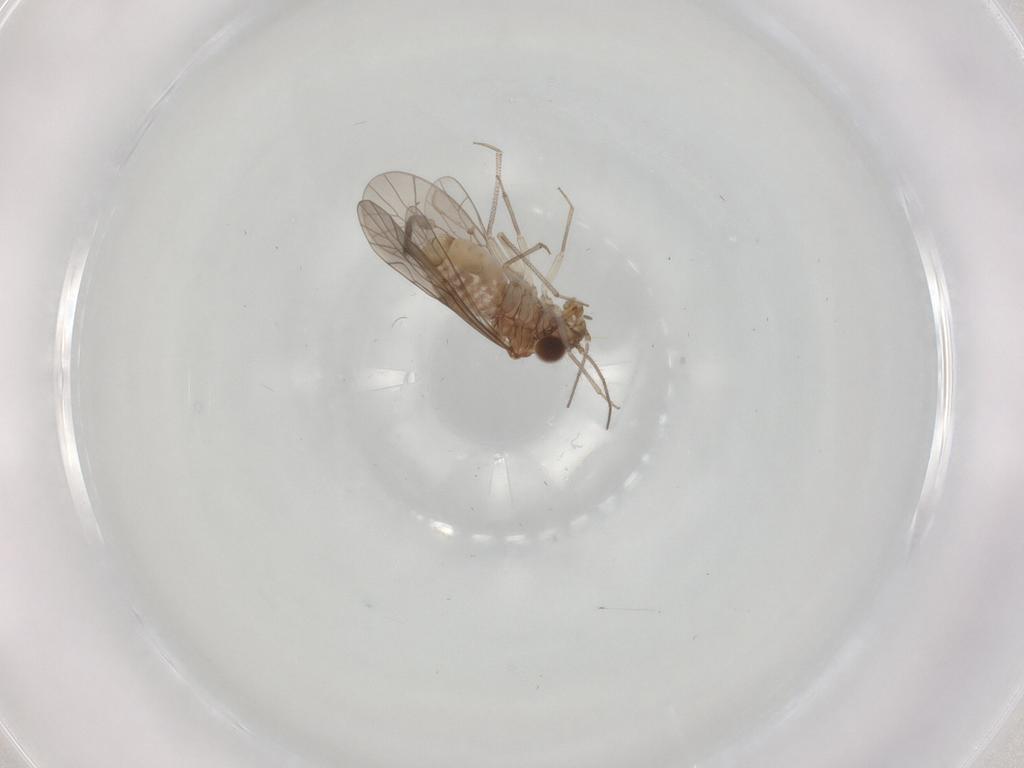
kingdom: Animalia
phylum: Arthropoda
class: Insecta
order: Psocodea
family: Lachesillidae
